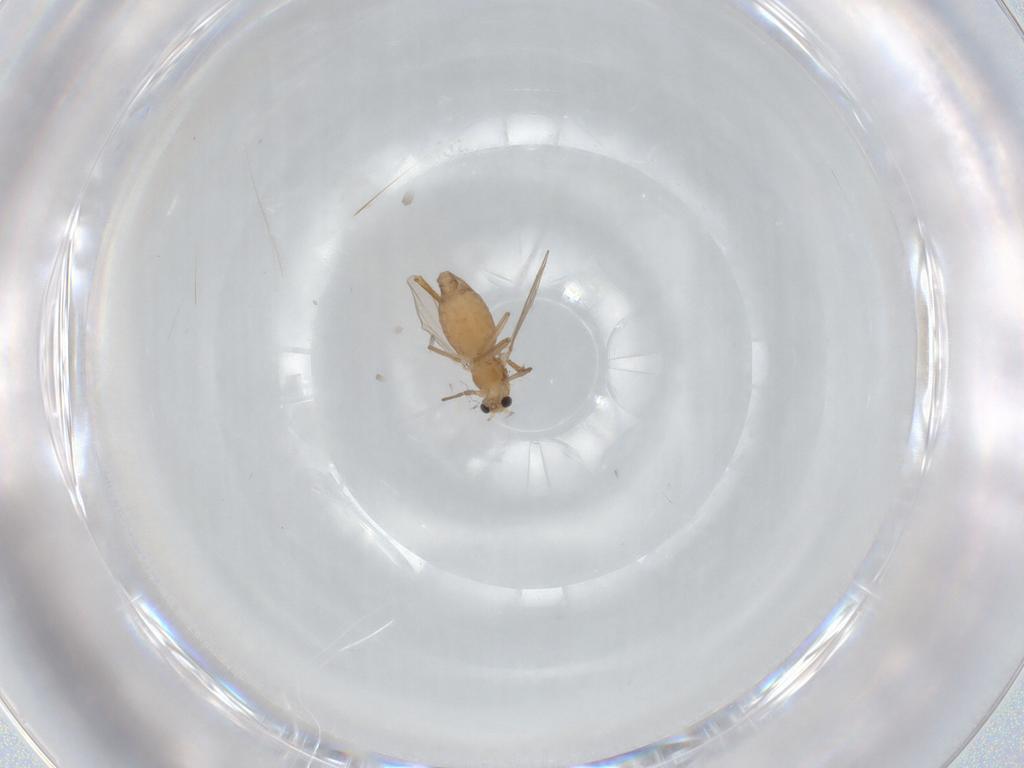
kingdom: Animalia
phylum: Arthropoda
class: Insecta
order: Diptera
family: Chironomidae
